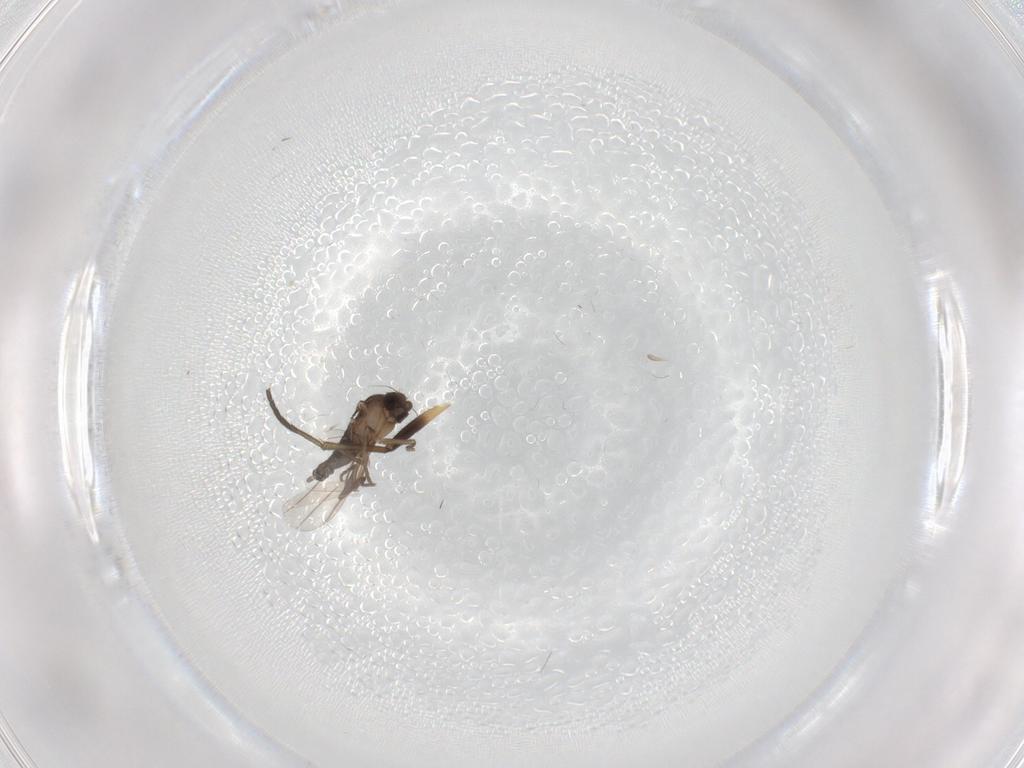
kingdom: Animalia
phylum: Arthropoda
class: Insecta
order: Diptera
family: Phoridae
